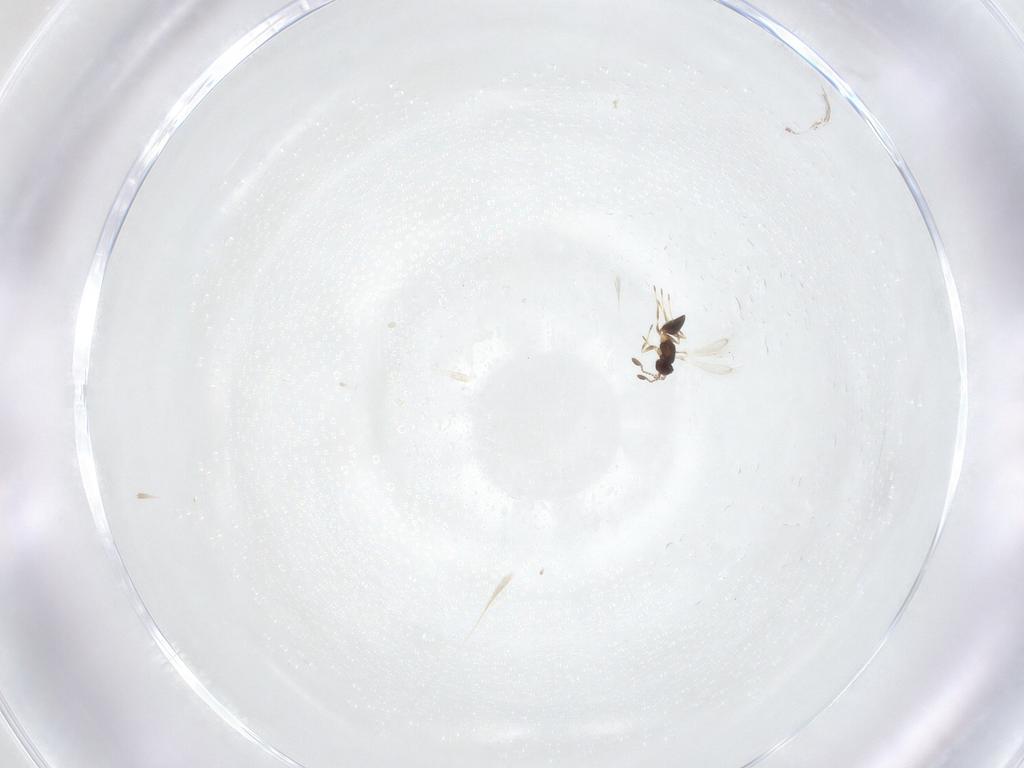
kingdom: Animalia
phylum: Arthropoda
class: Insecta
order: Hymenoptera
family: Mymaridae
